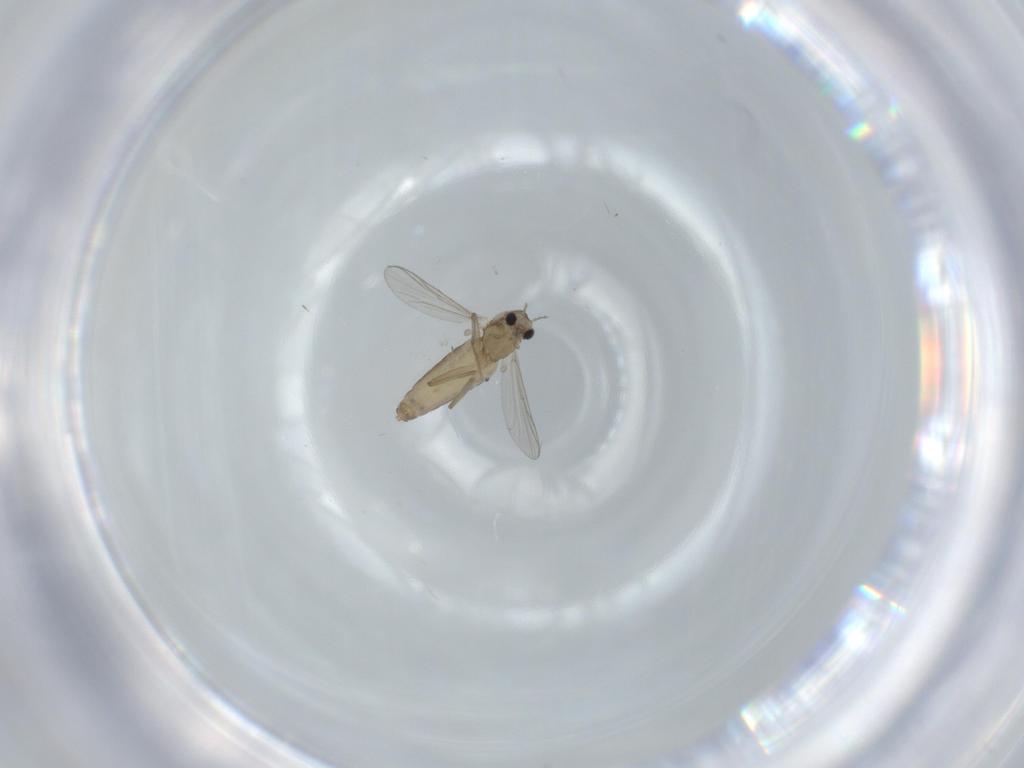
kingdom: Animalia
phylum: Arthropoda
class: Insecta
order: Diptera
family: Chironomidae
